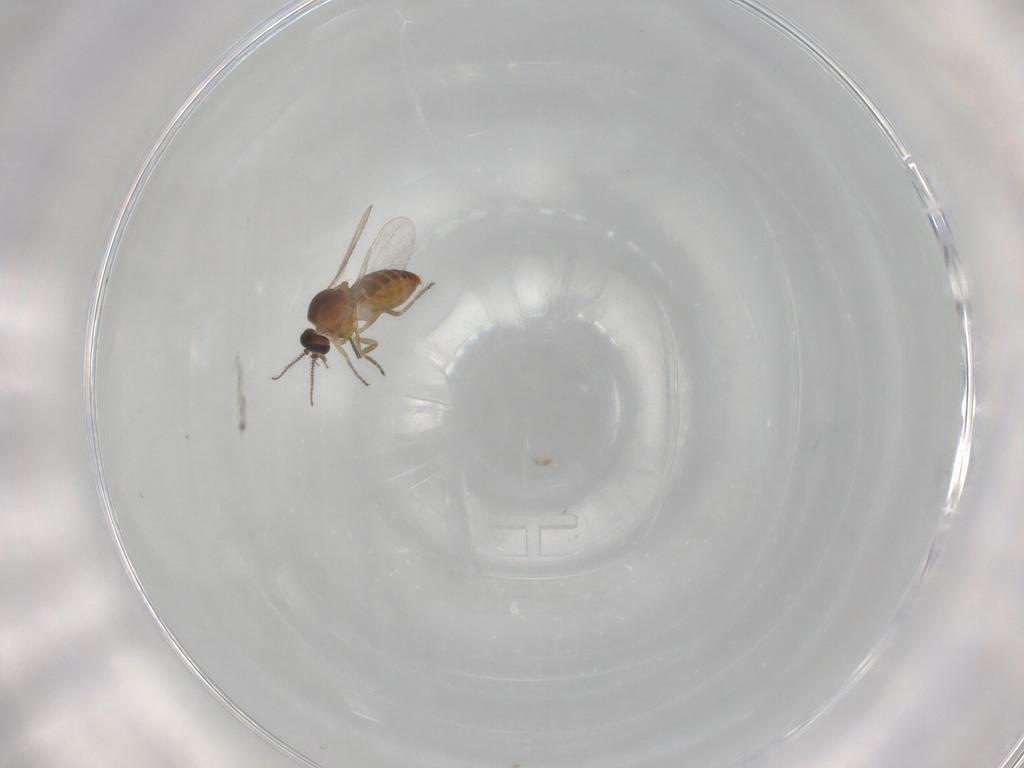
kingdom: Animalia
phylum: Arthropoda
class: Insecta
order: Diptera
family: Ceratopogonidae
